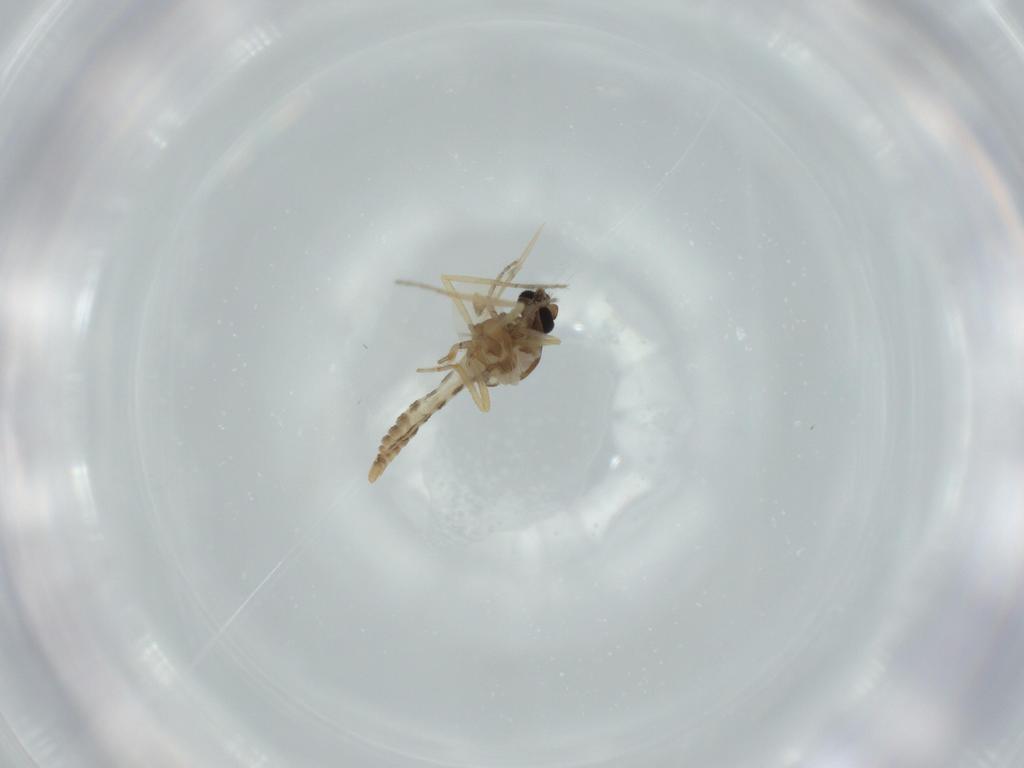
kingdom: Animalia
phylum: Arthropoda
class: Insecta
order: Diptera
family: Ceratopogonidae
